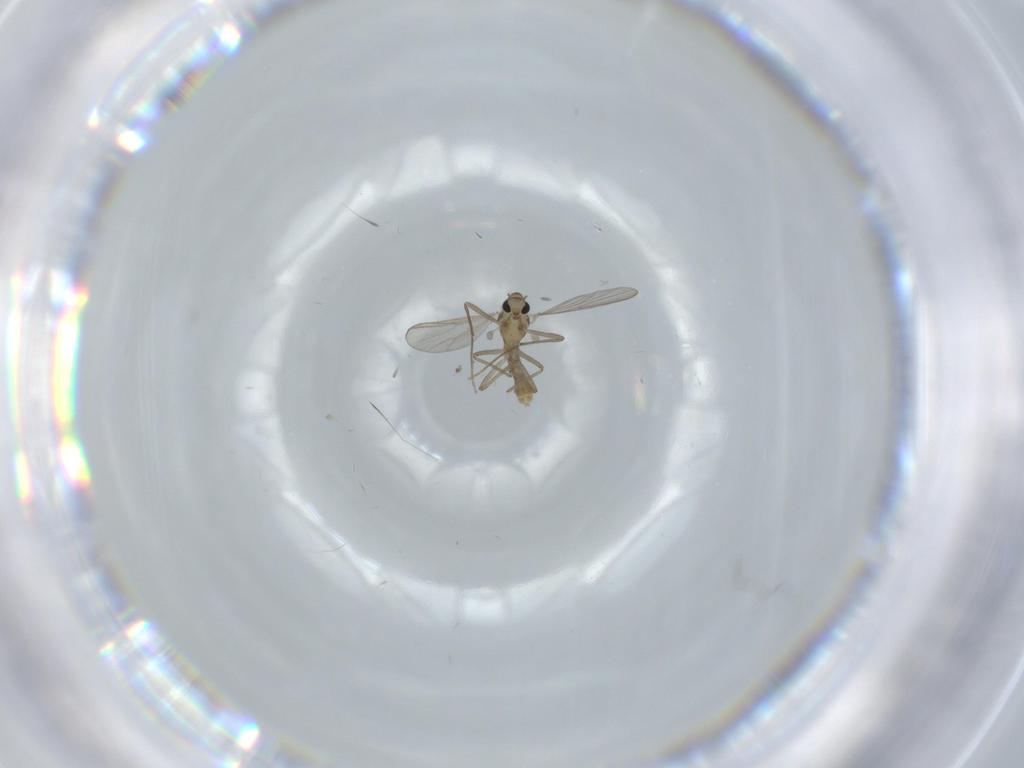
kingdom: Animalia
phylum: Arthropoda
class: Insecta
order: Diptera
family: Chironomidae
